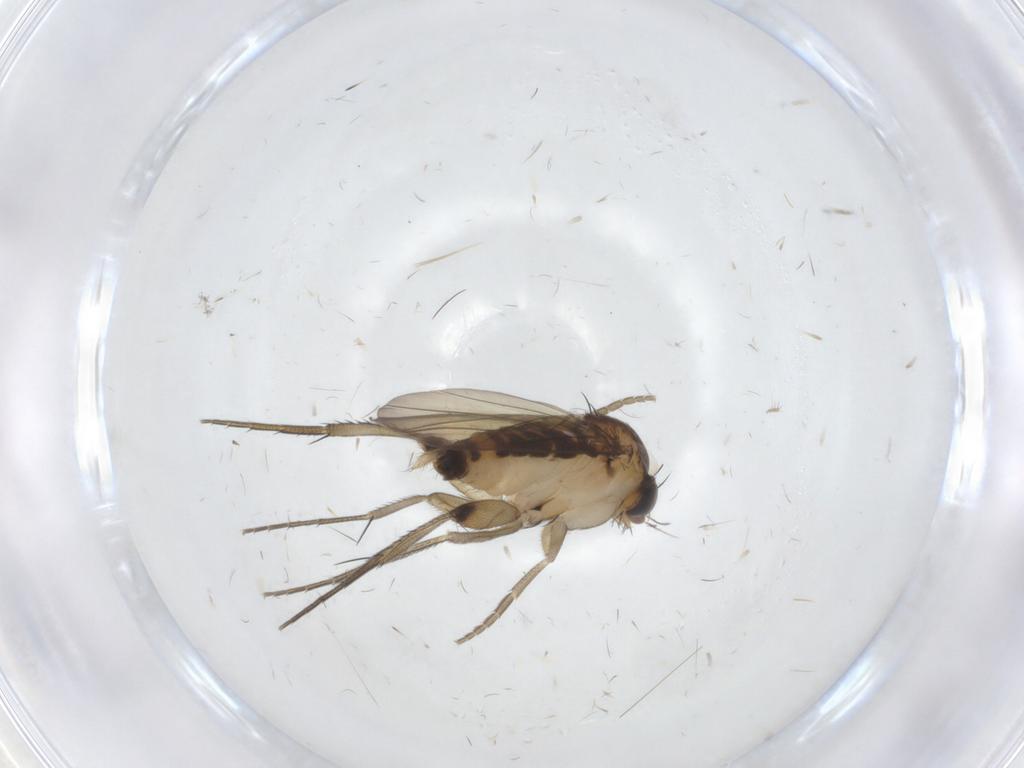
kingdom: Animalia
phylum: Arthropoda
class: Insecta
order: Diptera
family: Phoridae
